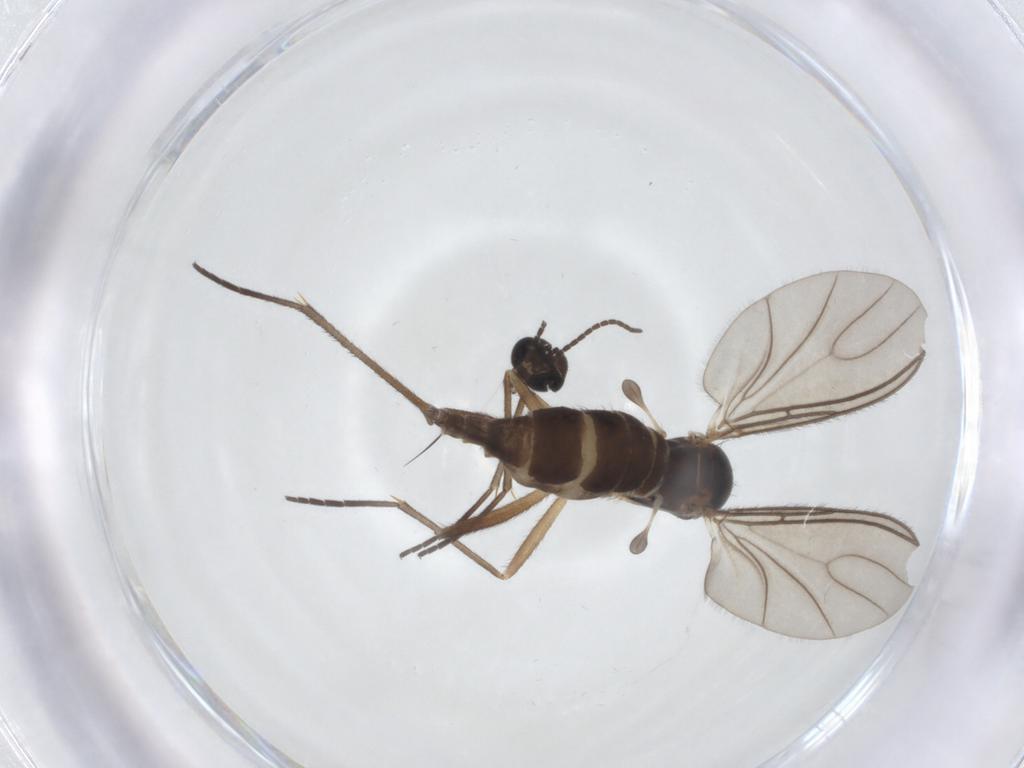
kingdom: Animalia
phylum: Arthropoda
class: Insecta
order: Diptera
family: Sciaridae
